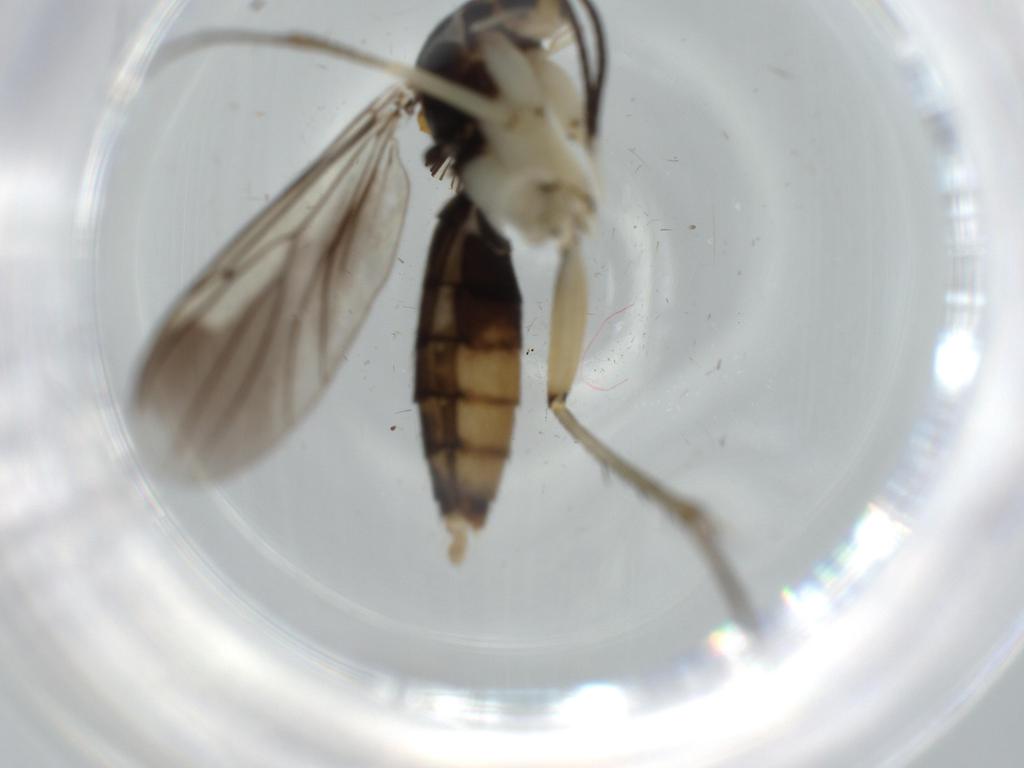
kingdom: Animalia
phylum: Arthropoda
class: Insecta
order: Diptera
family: Mycetophilidae
